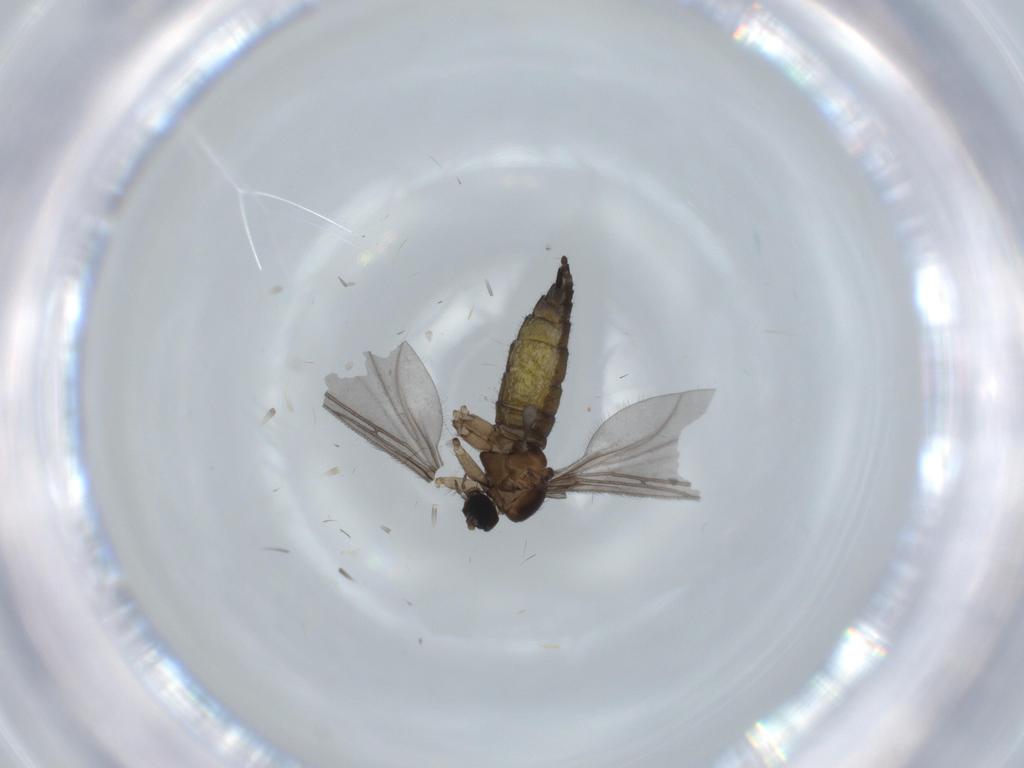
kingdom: Animalia
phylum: Arthropoda
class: Insecta
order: Diptera
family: Sciaridae
